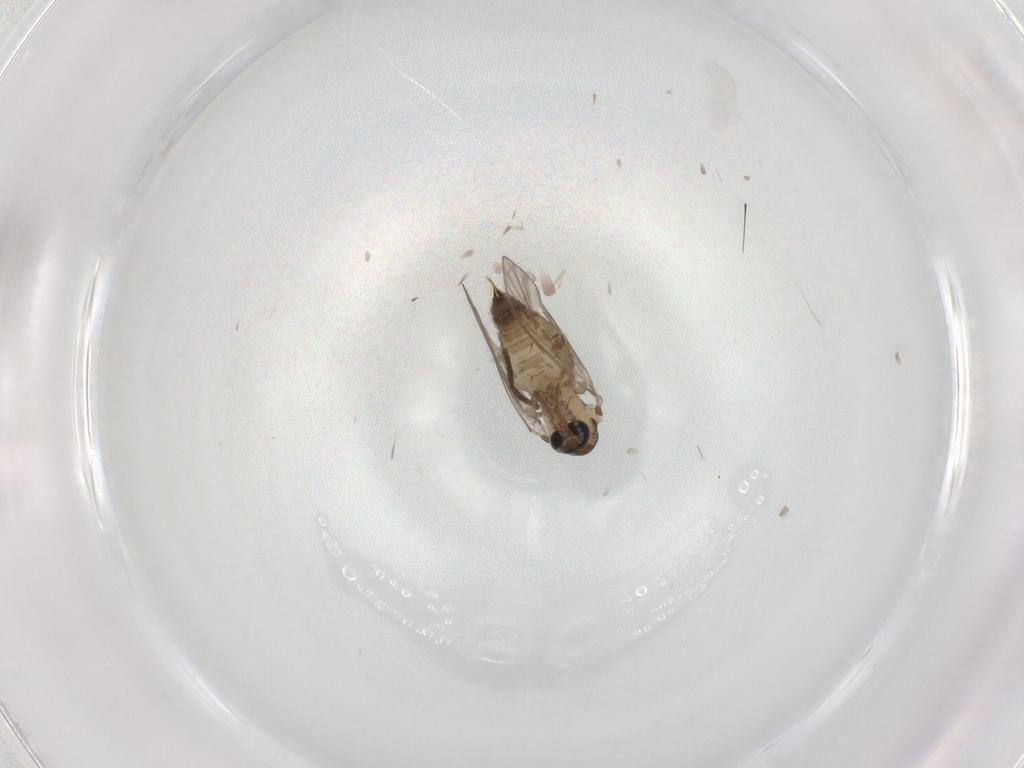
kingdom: Animalia
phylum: Arthropoda
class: Insecta
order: Diptera
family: Psychodidae
